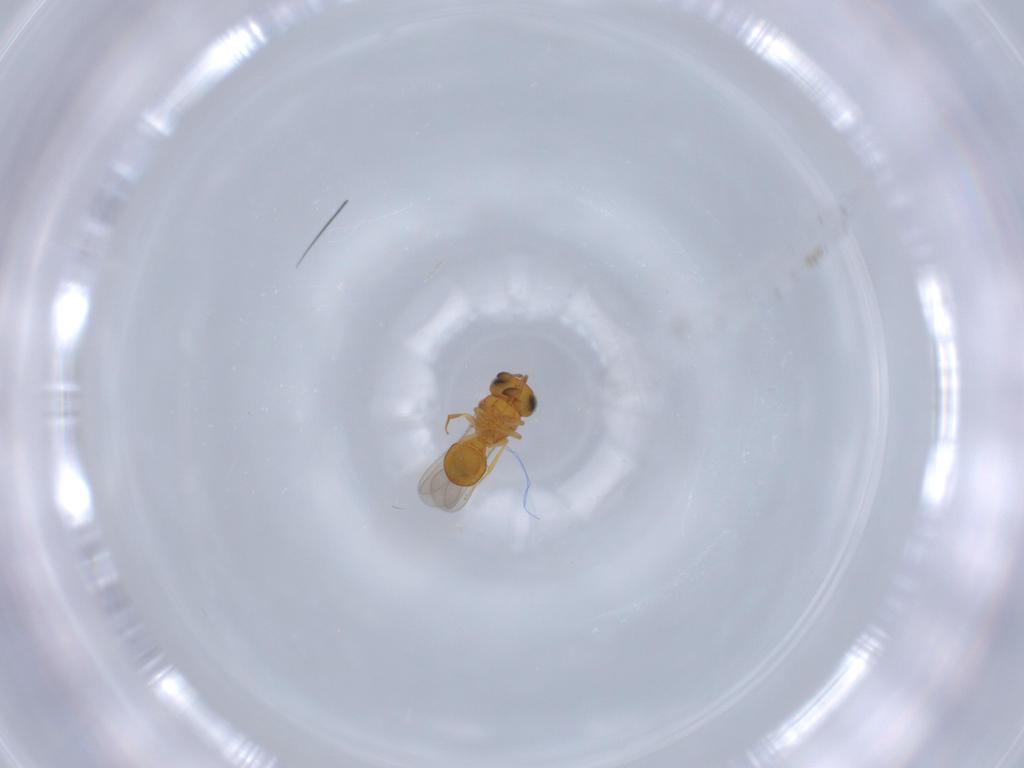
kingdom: Animalia
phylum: Arthropoda
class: Insecta
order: Hymenoptera
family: Scelionidae
